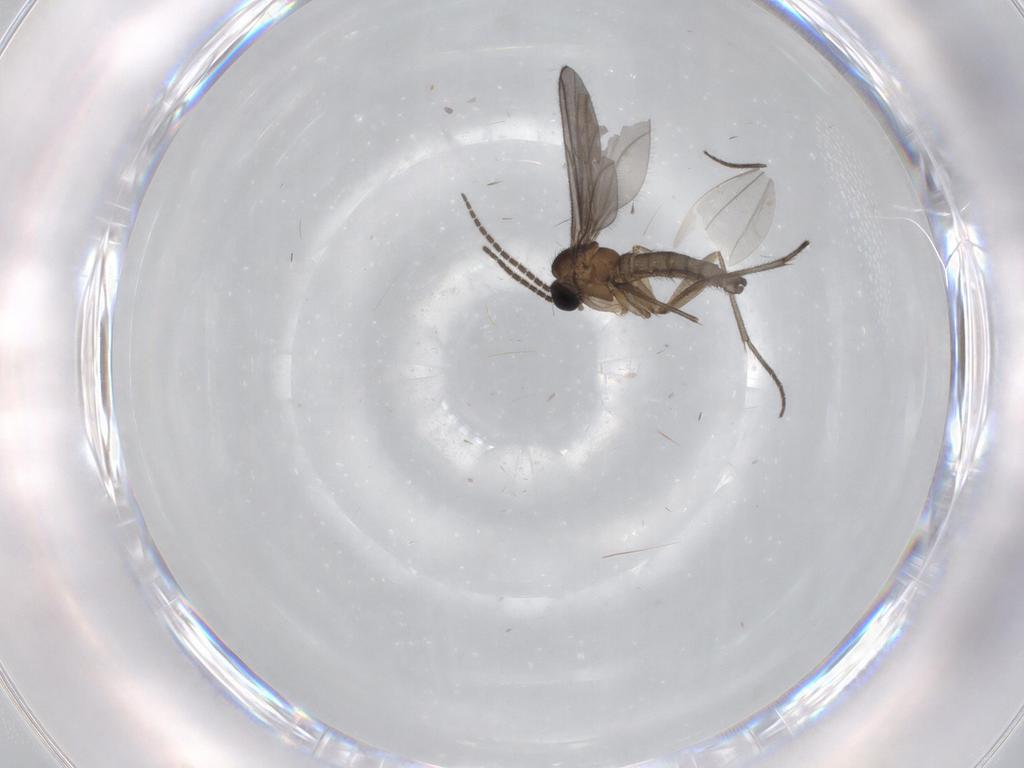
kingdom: Animalia
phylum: Arthropoda
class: Insecta
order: Diptera
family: Sciaridae
